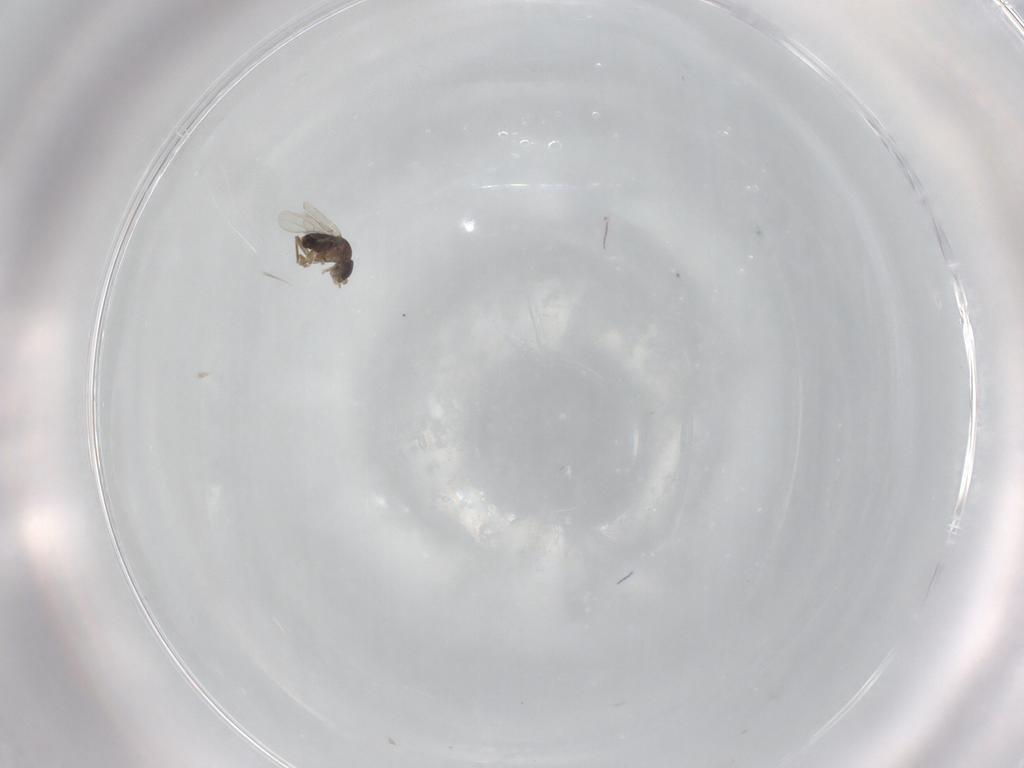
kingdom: Animalia
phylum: Arthropoda
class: Insecta
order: Diptera
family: Phoridae
